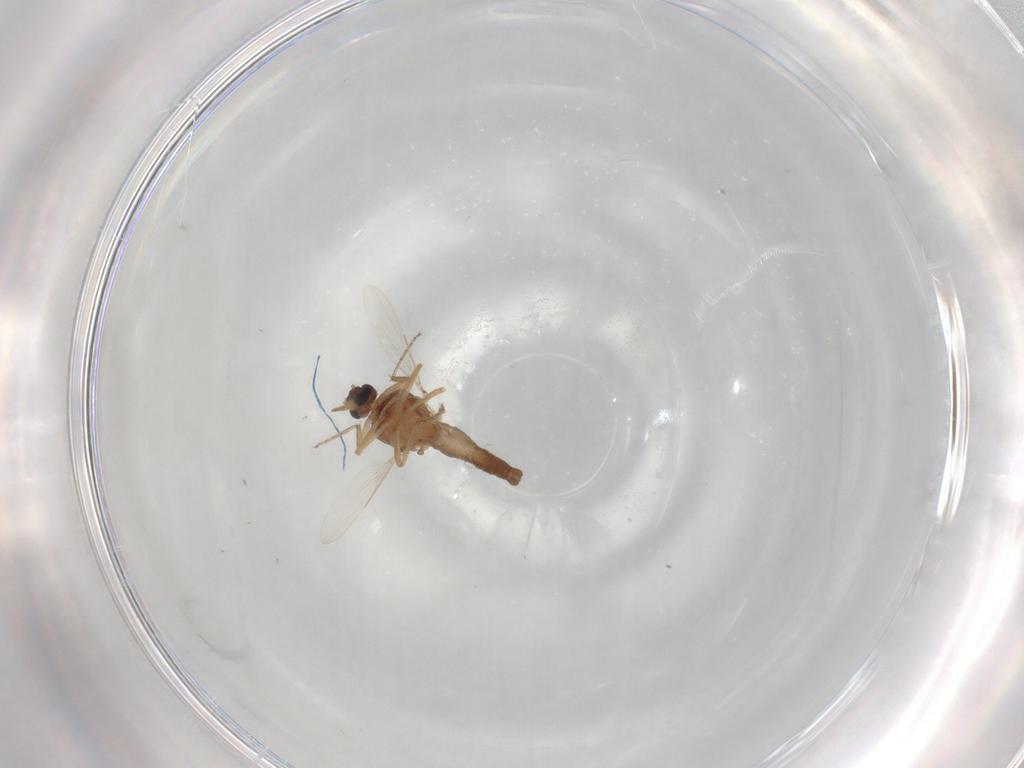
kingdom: Animalia
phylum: Arthropoda
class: Insecta
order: Diptera
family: Ceratopogonidae
